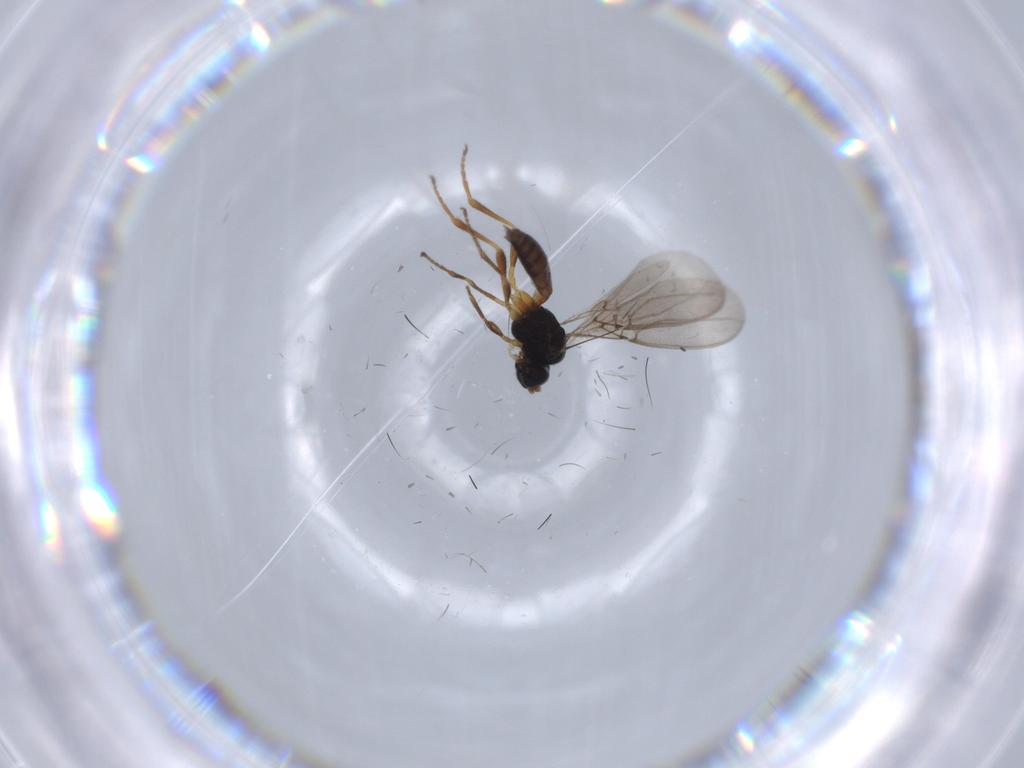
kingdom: Animalia
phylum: Arthropoda
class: Insecta
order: Hymenoptera
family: Braconidae
